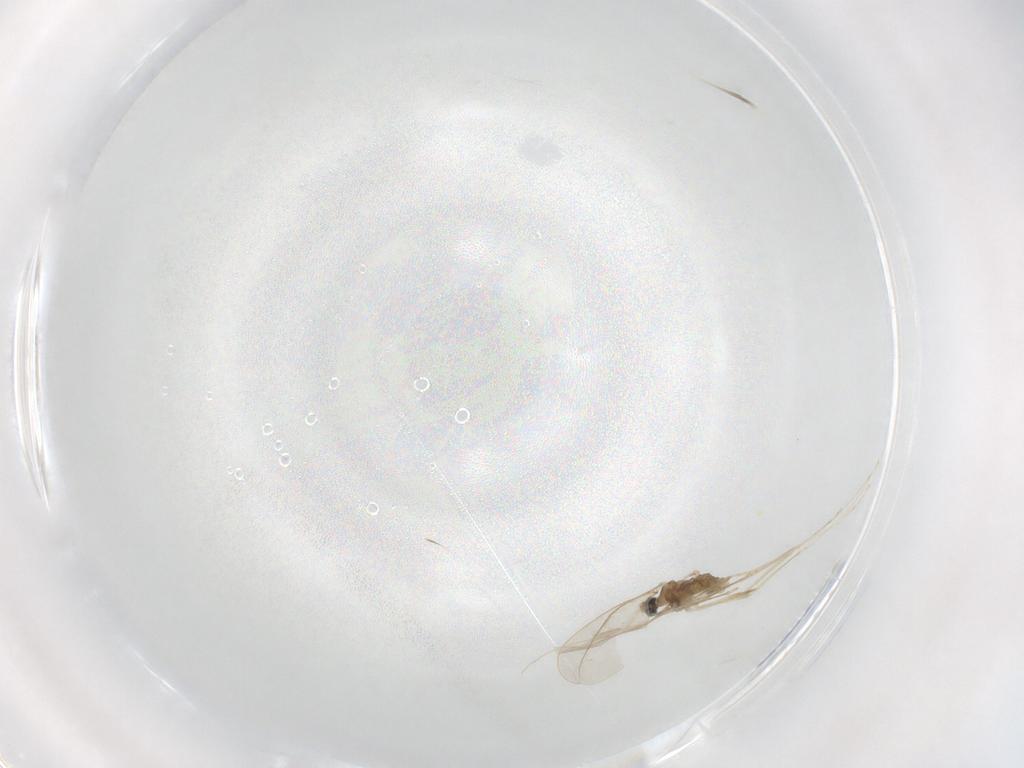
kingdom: Animalia
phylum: Arthropoda
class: Insecta
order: Diptera
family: Cecidomyiidae
